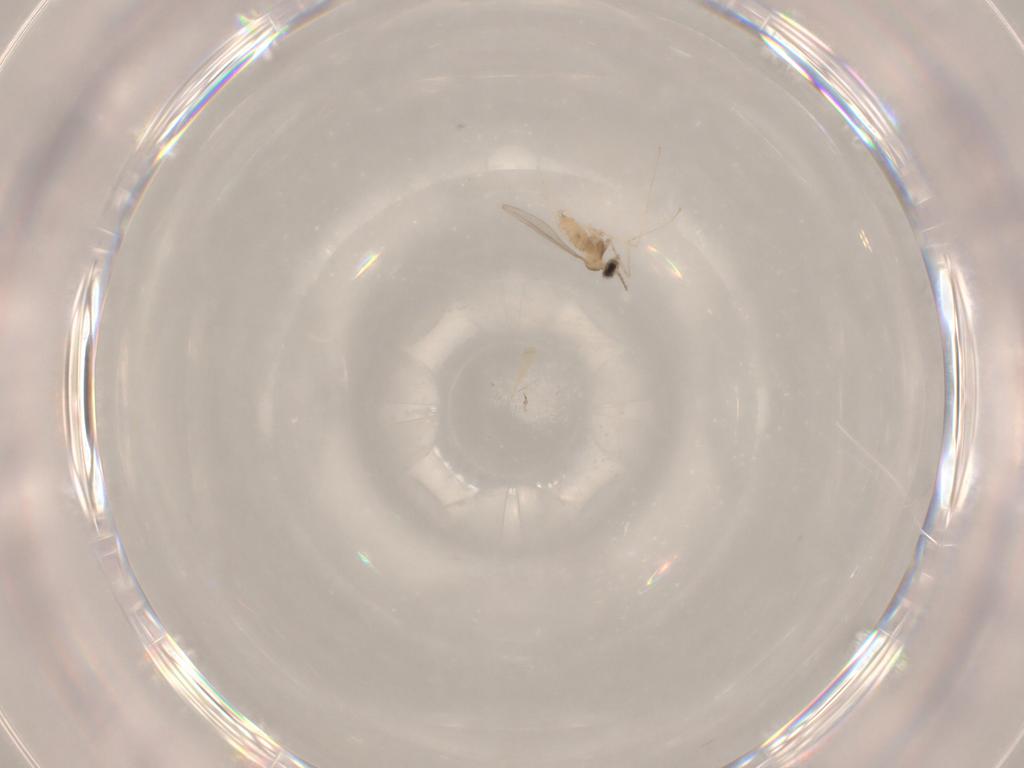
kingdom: Animalia
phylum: Arthropoda
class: Insecta
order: Diptera
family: Cecidomyiidae
